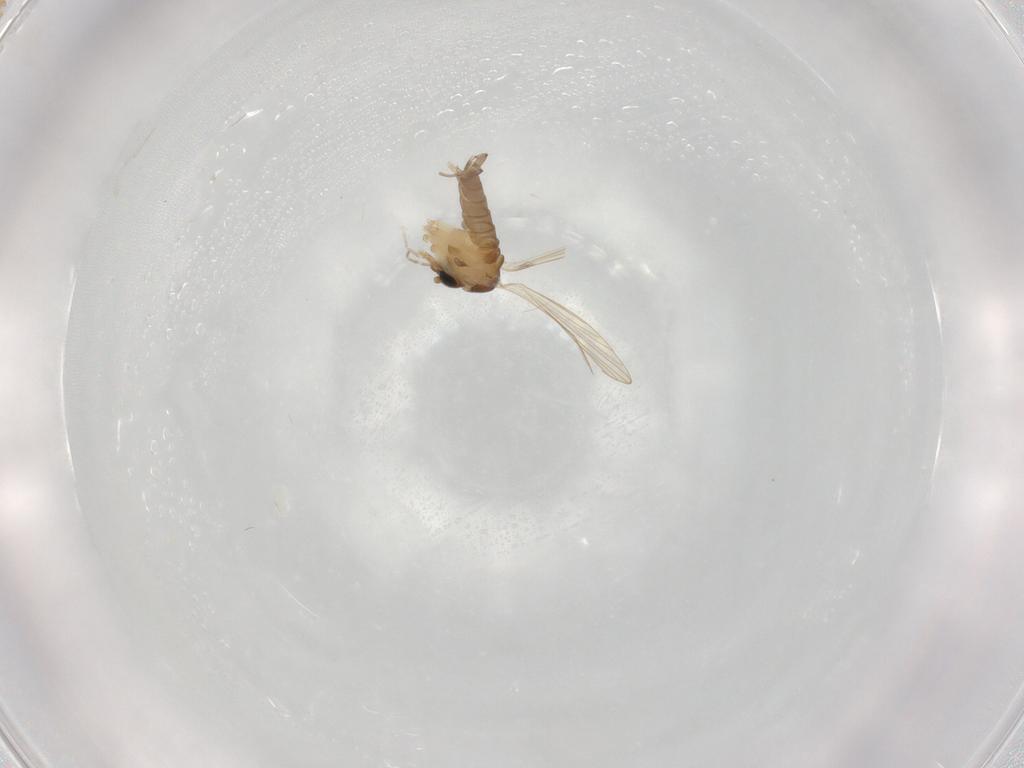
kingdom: Animalia
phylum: Arthropoda
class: Insecta
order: Diptera
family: Psychodidae
